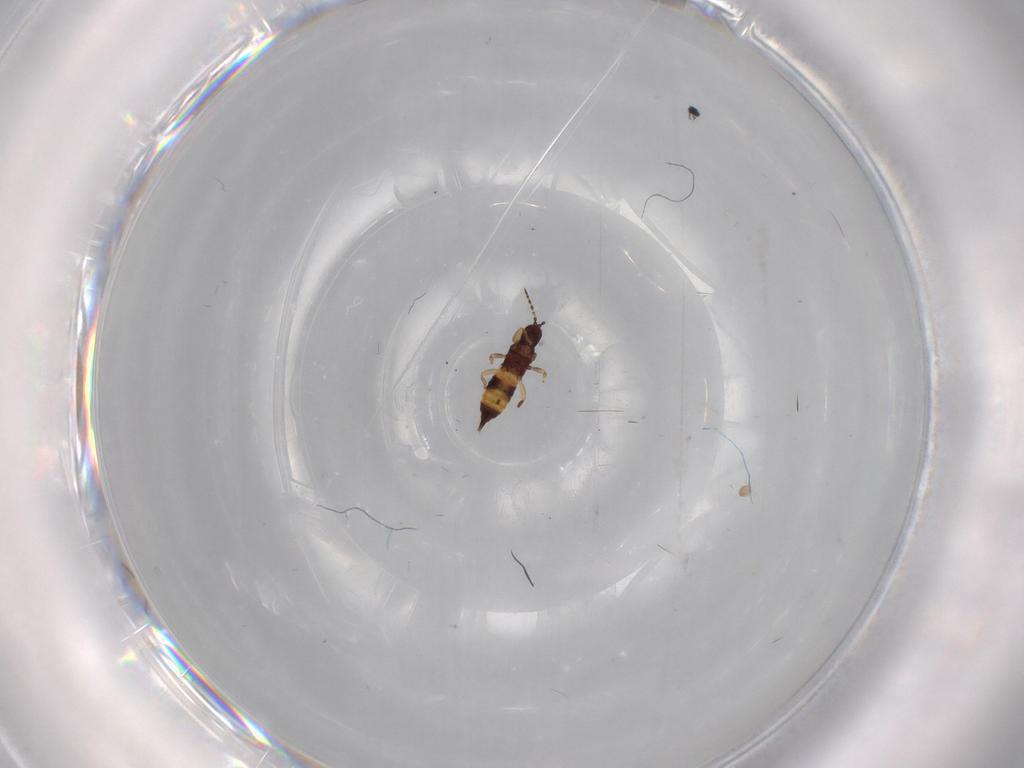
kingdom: Animalia
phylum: Arthropoda
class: Insecta
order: Thysanoptera
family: Phlaeothripidae
